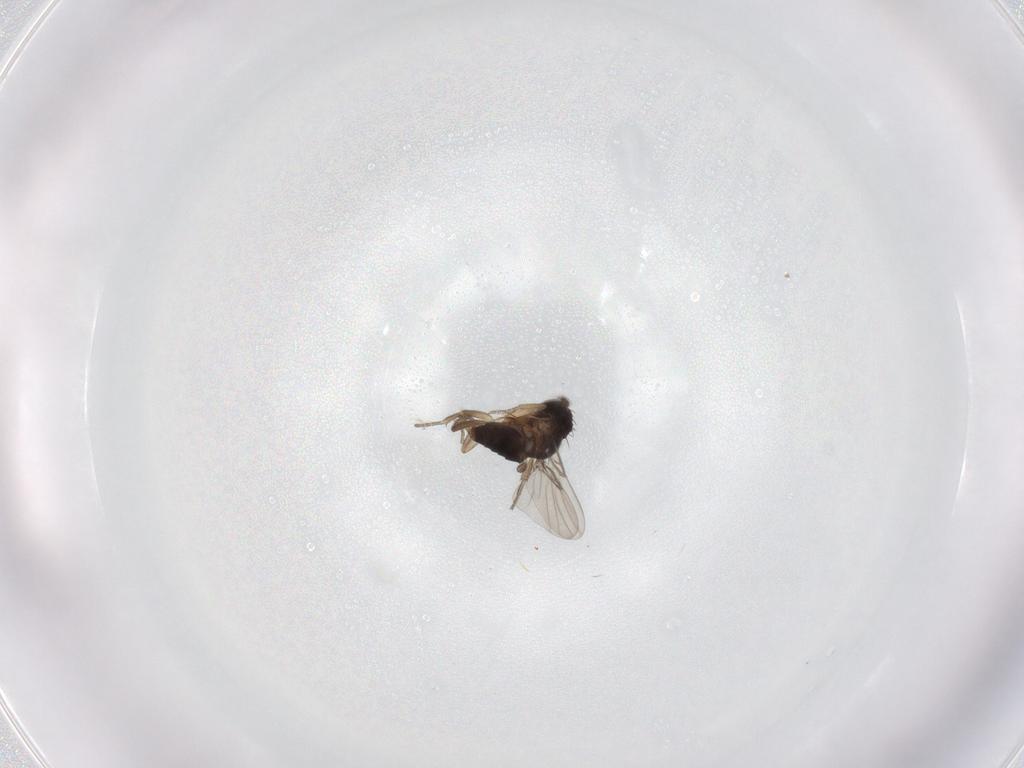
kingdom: Animalia
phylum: Arthropoda
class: Insecta
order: Diptera
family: Phoridae
